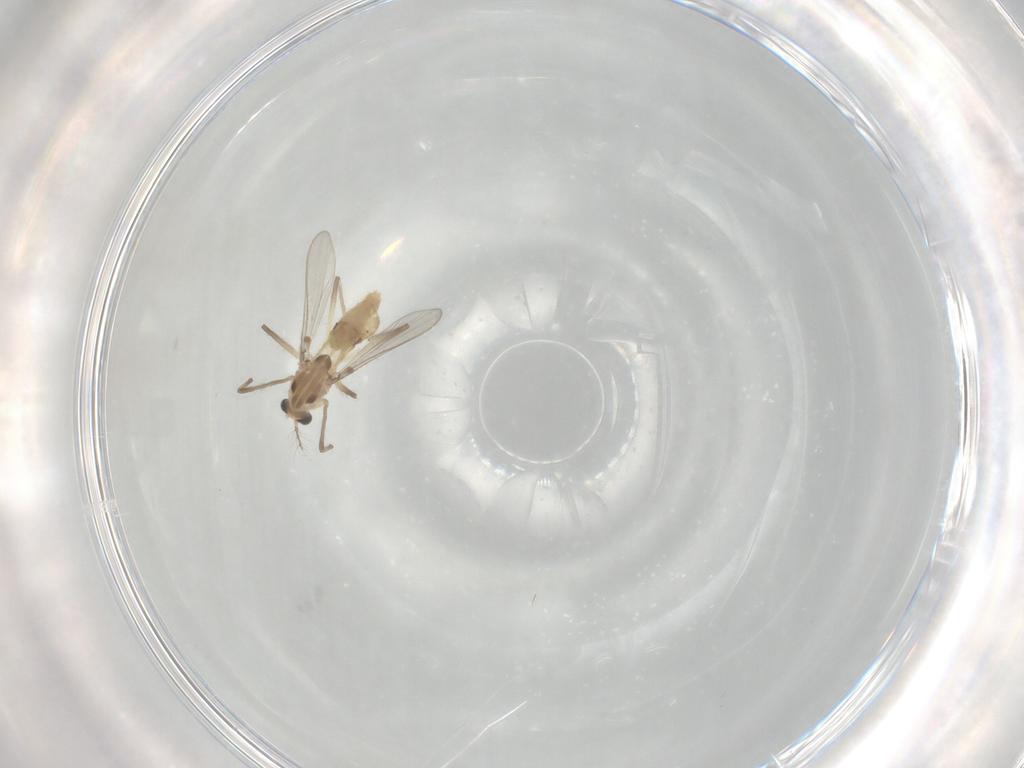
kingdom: Animalia
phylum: Arthropoda
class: Insecta
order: Diptera
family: Chironomidae
